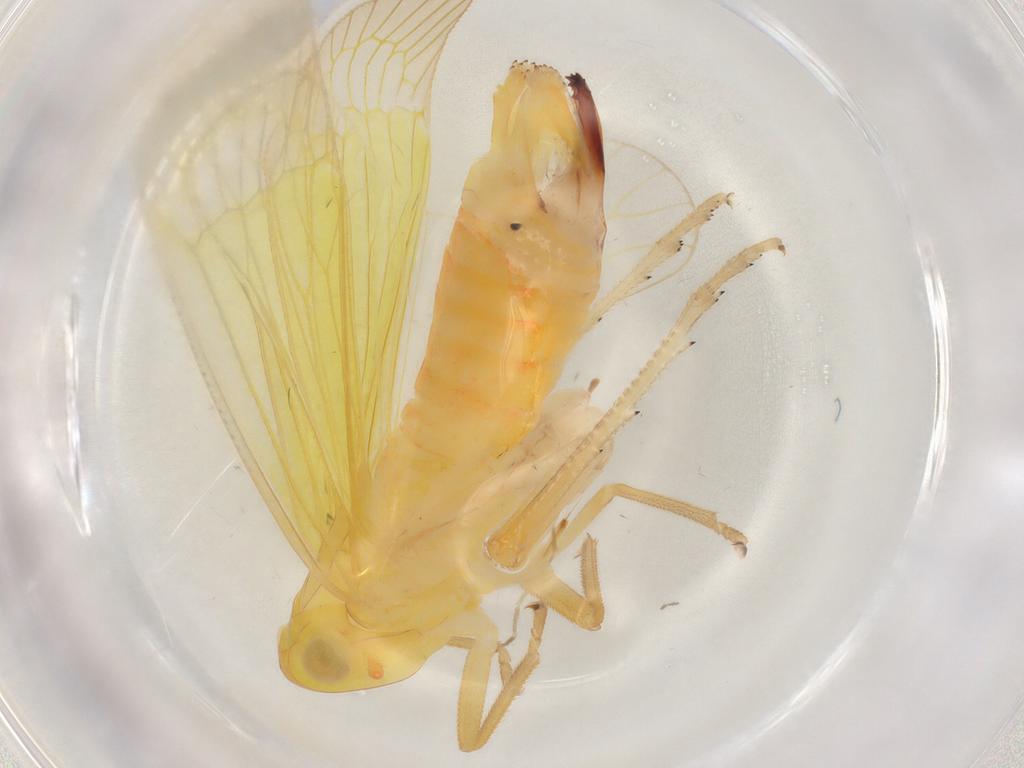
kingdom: Animalia
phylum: Arthropoda
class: Insecta
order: Hemiptera
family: Tropiduchidae
